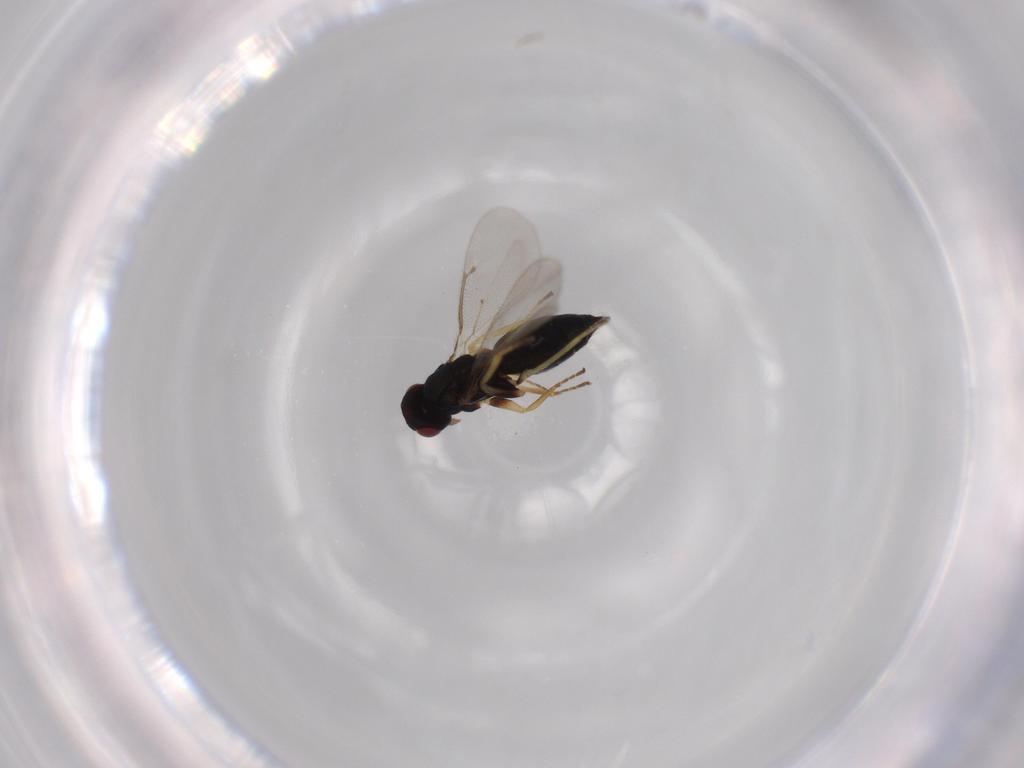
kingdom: Animalia
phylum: Arthropoda
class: Insecta
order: Hymenoptera
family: Eulophidae
